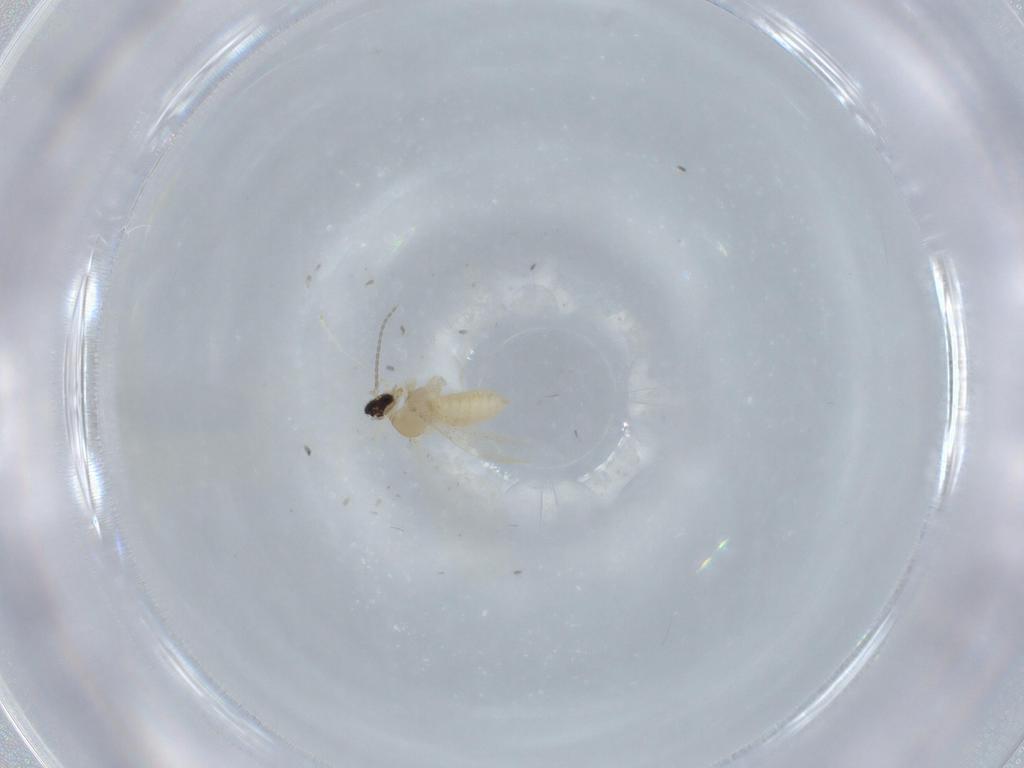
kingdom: Animalia
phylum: Arthropoda
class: Insecta
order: Diptera
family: Cecidomyiidae
